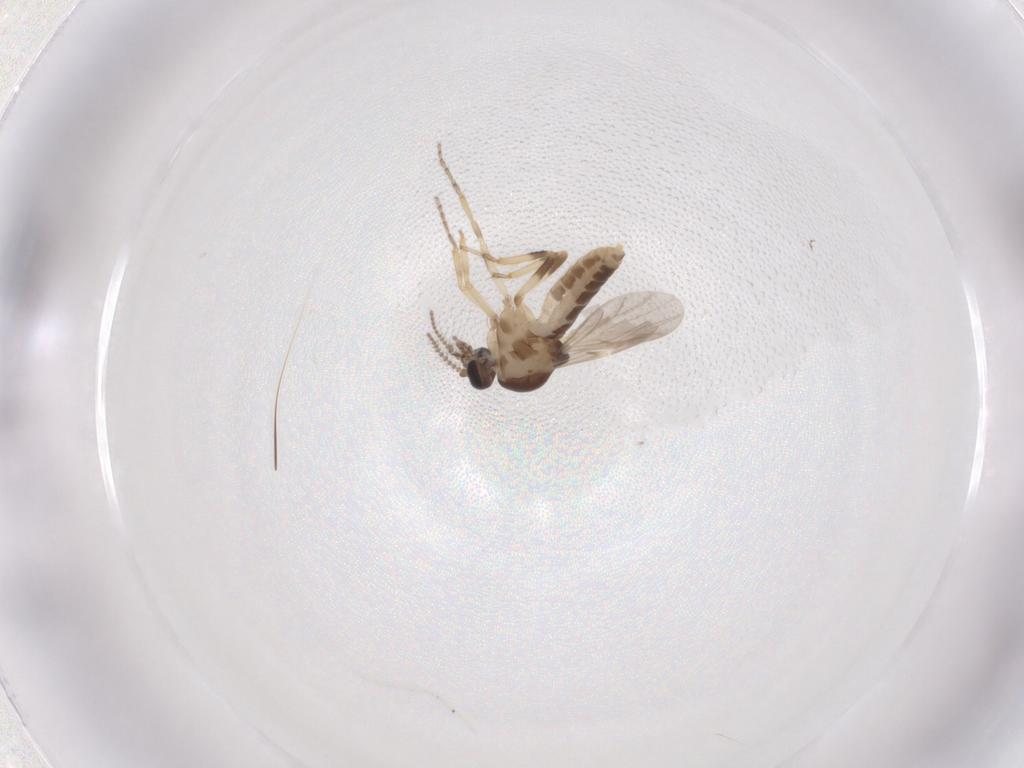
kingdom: Animalia
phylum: Arthropoda
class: Insecta
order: Diptera
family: Ceratopogonidae
